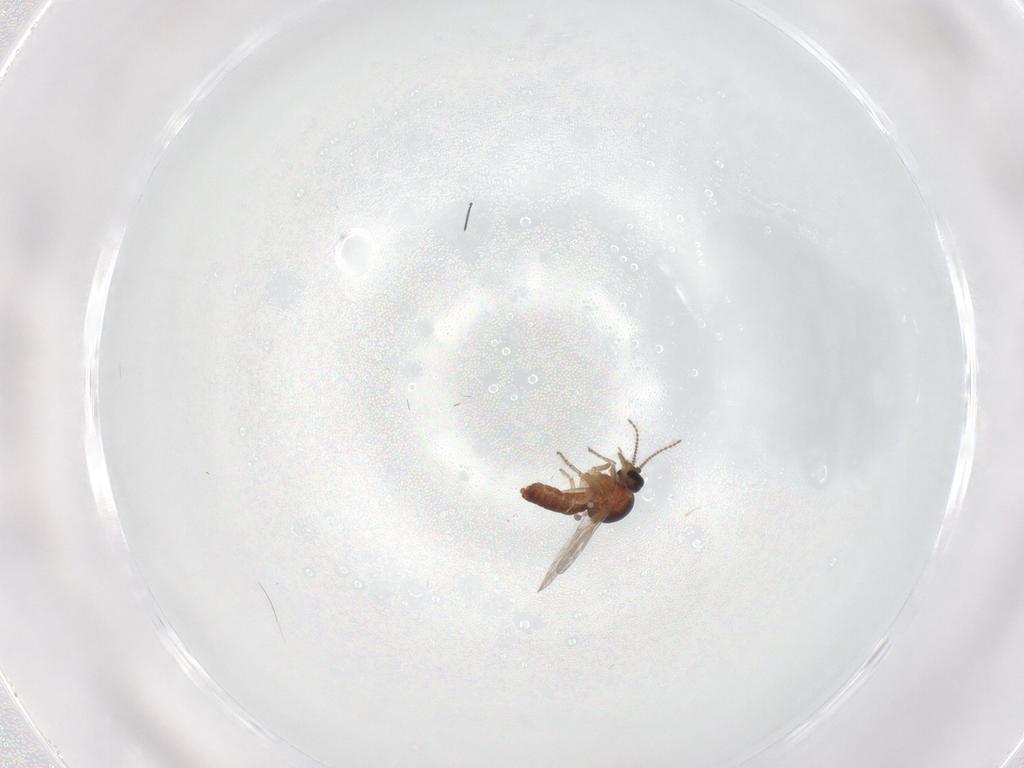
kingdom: Animalia
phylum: Arthropoda
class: Insecta
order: Diptera
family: Ceratopogonidae
